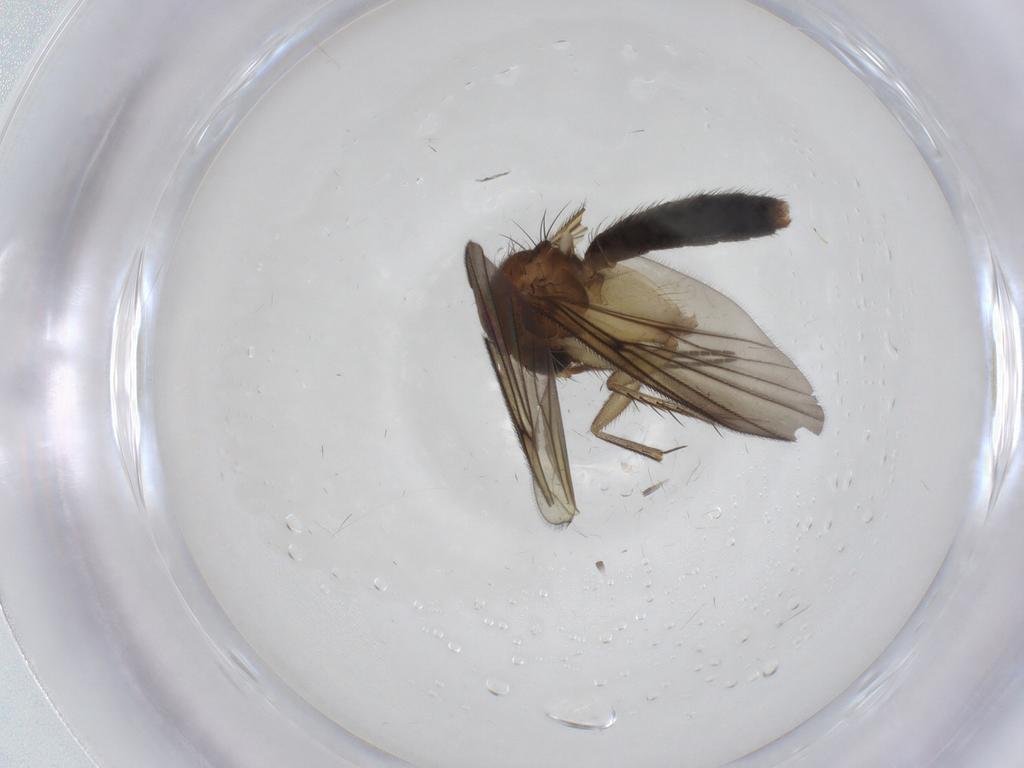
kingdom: Animalia
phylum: Arthropoda
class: Insecta
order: Diptera
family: Mycetophilidae
